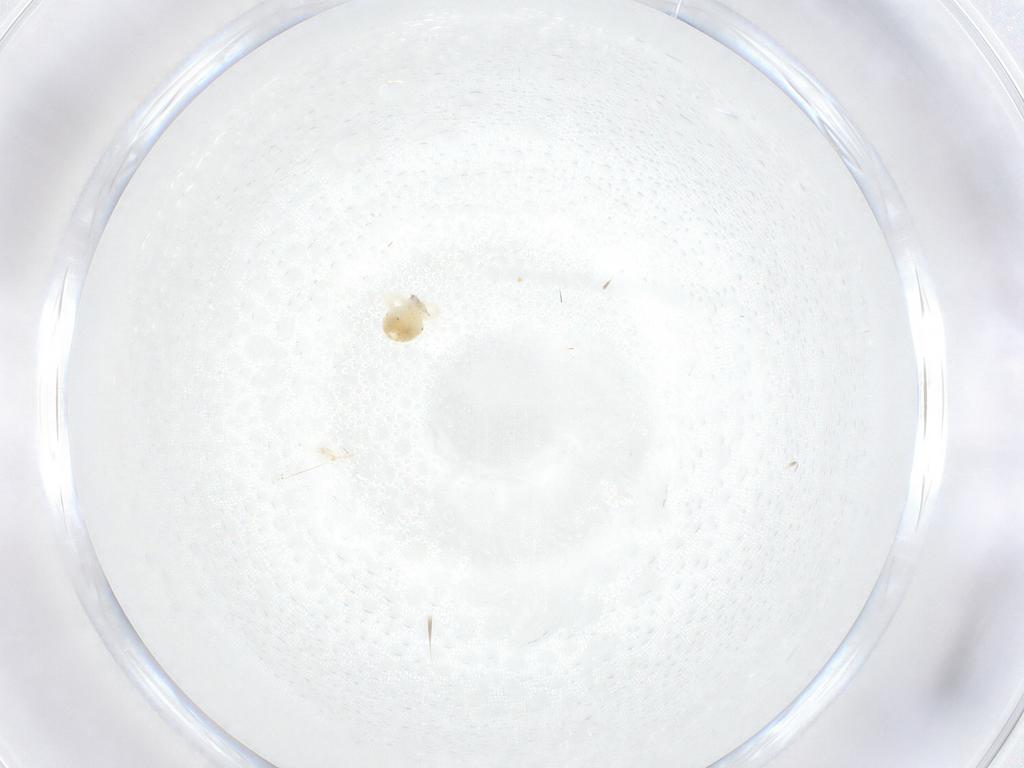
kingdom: Animalia
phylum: Arthropoda
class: Arachnida
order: Trombidiformes
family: Anystidae
